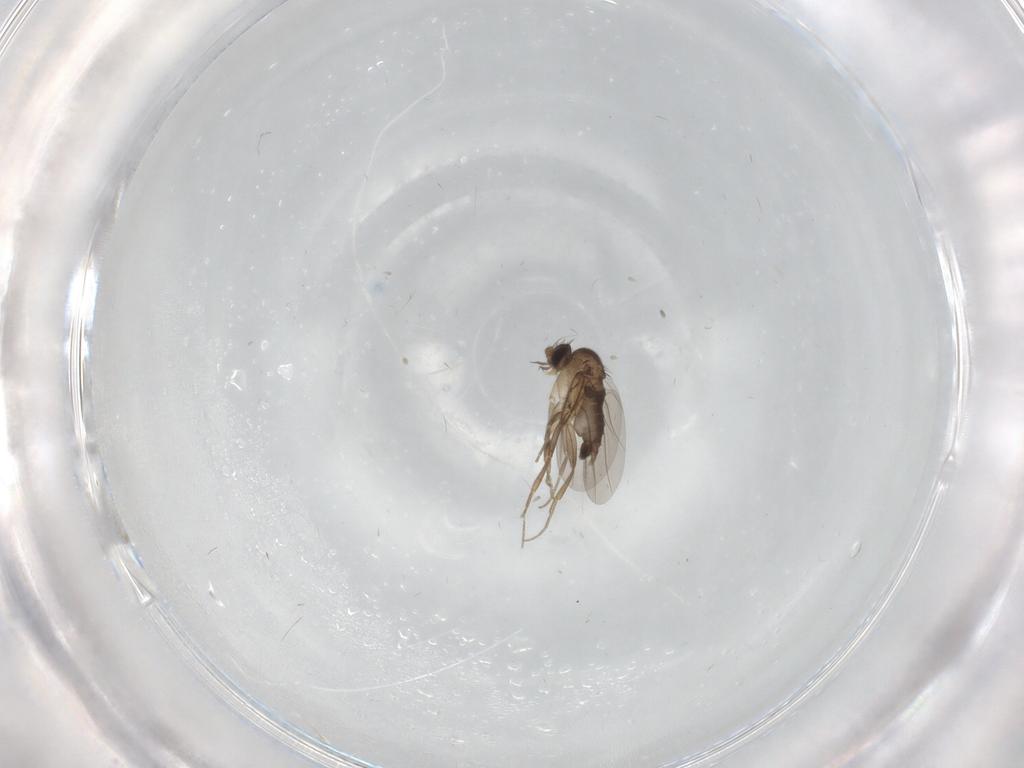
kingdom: Animalia
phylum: Arthropoda
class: Insecta
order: Diptera
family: Phoridae
